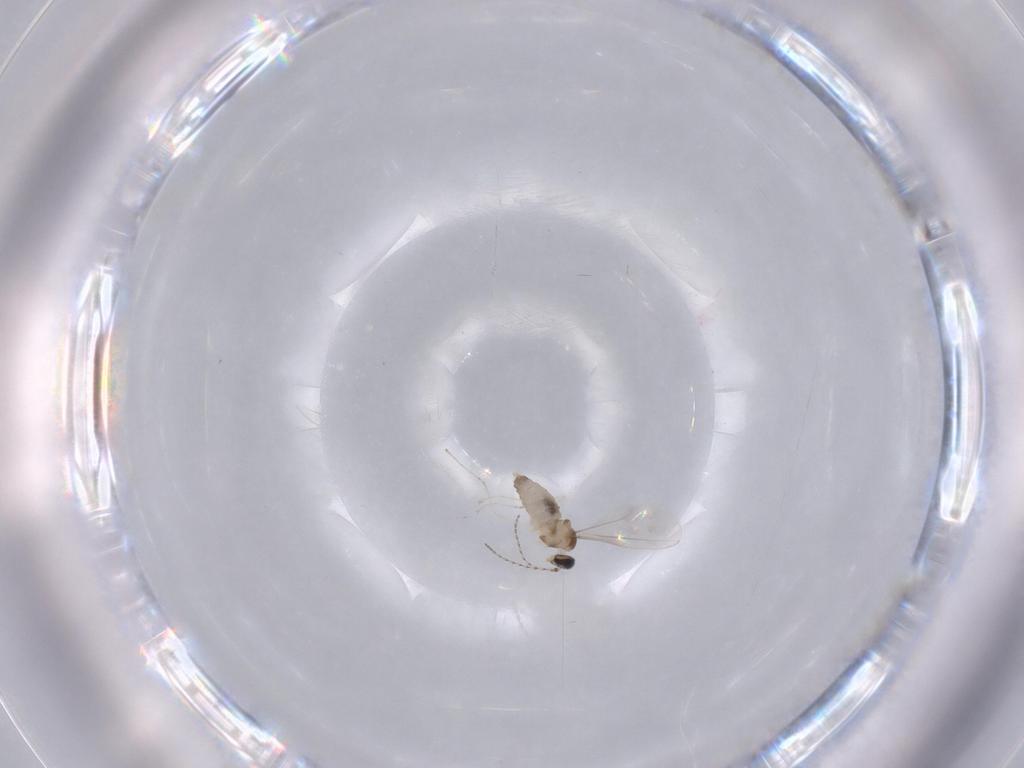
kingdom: Animalia
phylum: Arthropoda
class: Insecta
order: Diptera
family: Cecidomyiidae
